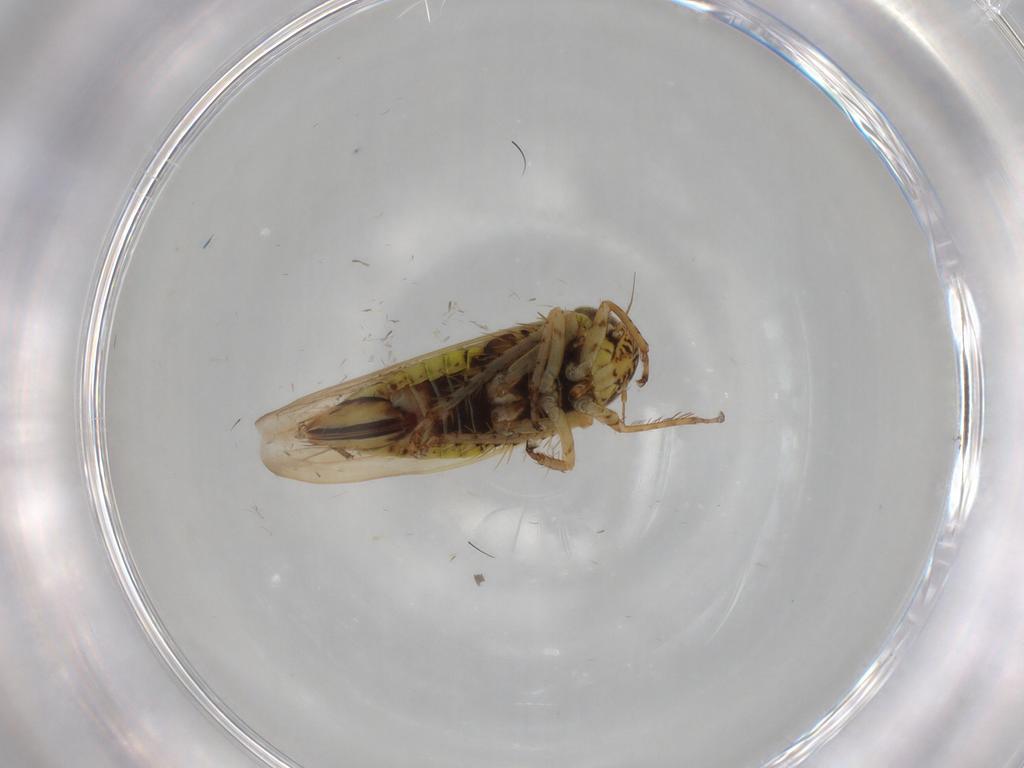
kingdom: Animalia
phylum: Arthropoda
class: Insecta
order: Hemiptera
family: Cicadellidae
